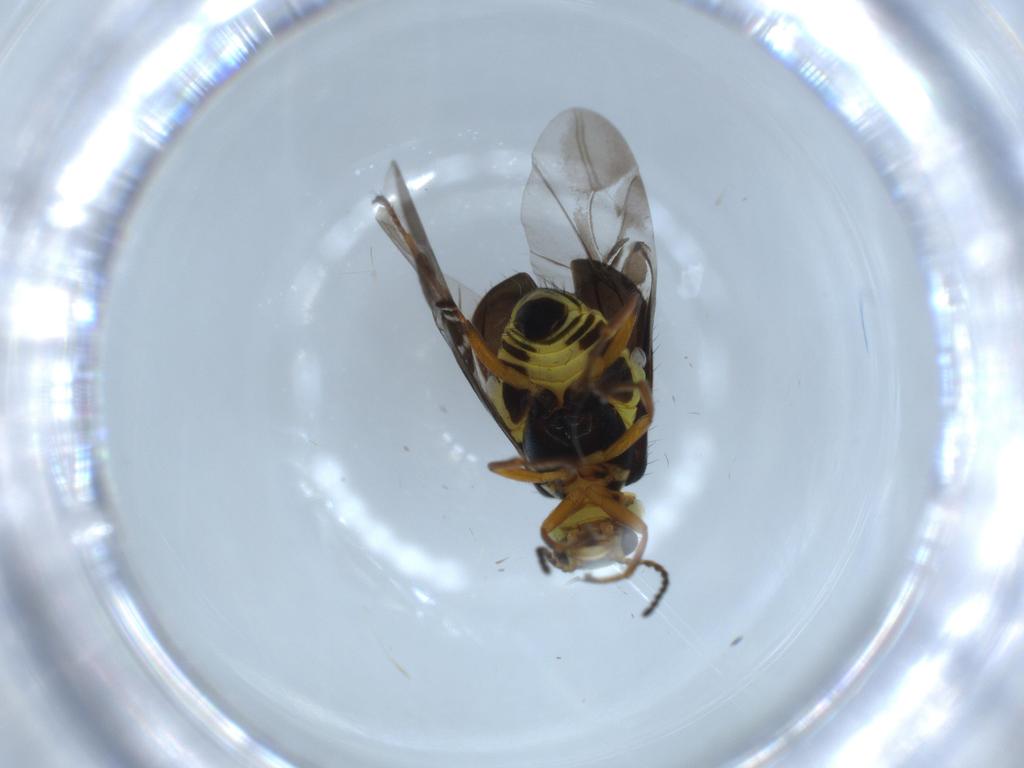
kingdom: Animalia
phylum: Arthropoda
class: Insecta
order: Coleoptera
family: Melyridae
